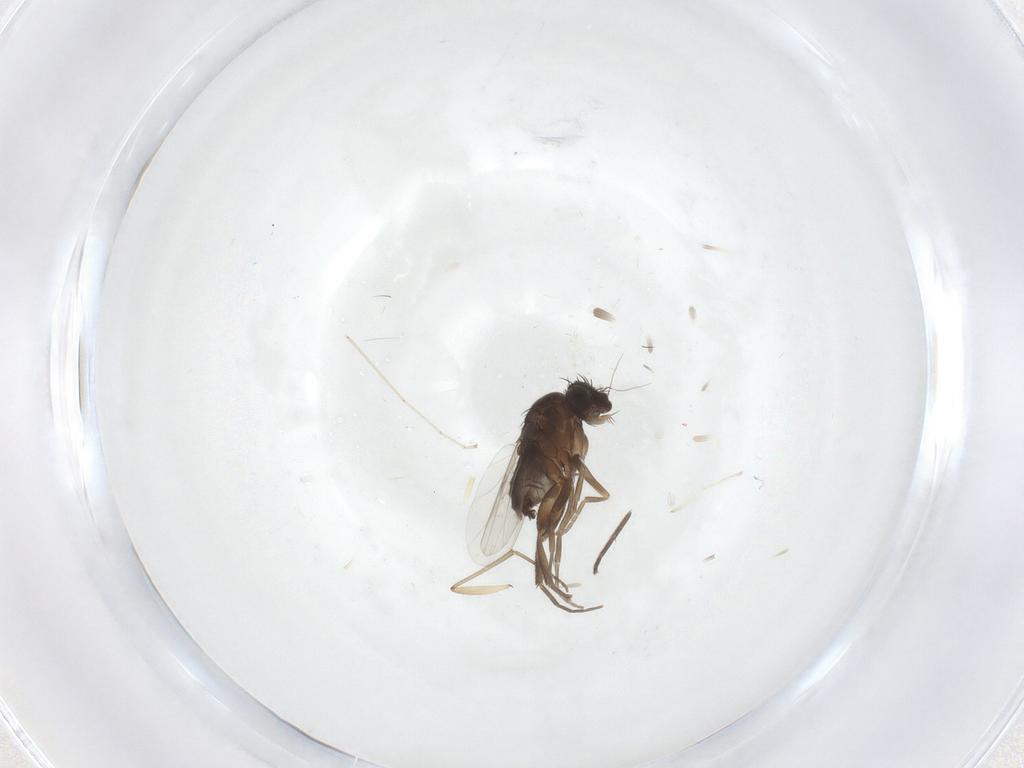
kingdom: Animalia
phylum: Arthropoda
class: Insecta
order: Diptera
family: Phoridae
